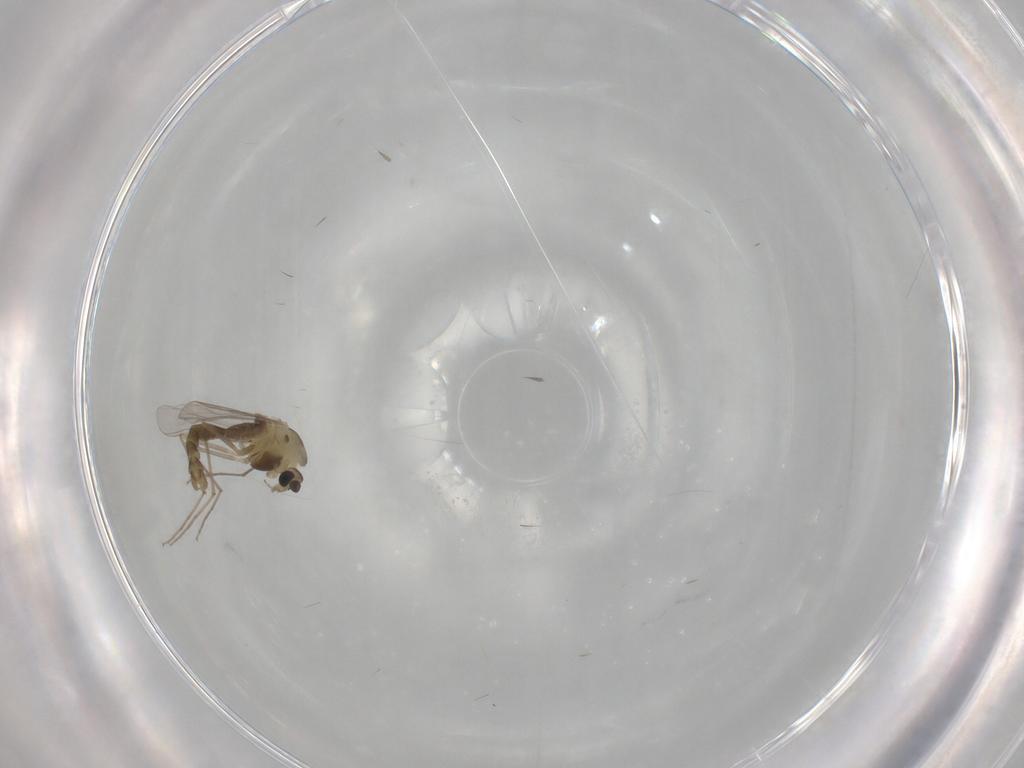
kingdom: Animalia
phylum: Arthropoda
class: Insecta
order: Diptera
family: Chironomidae
